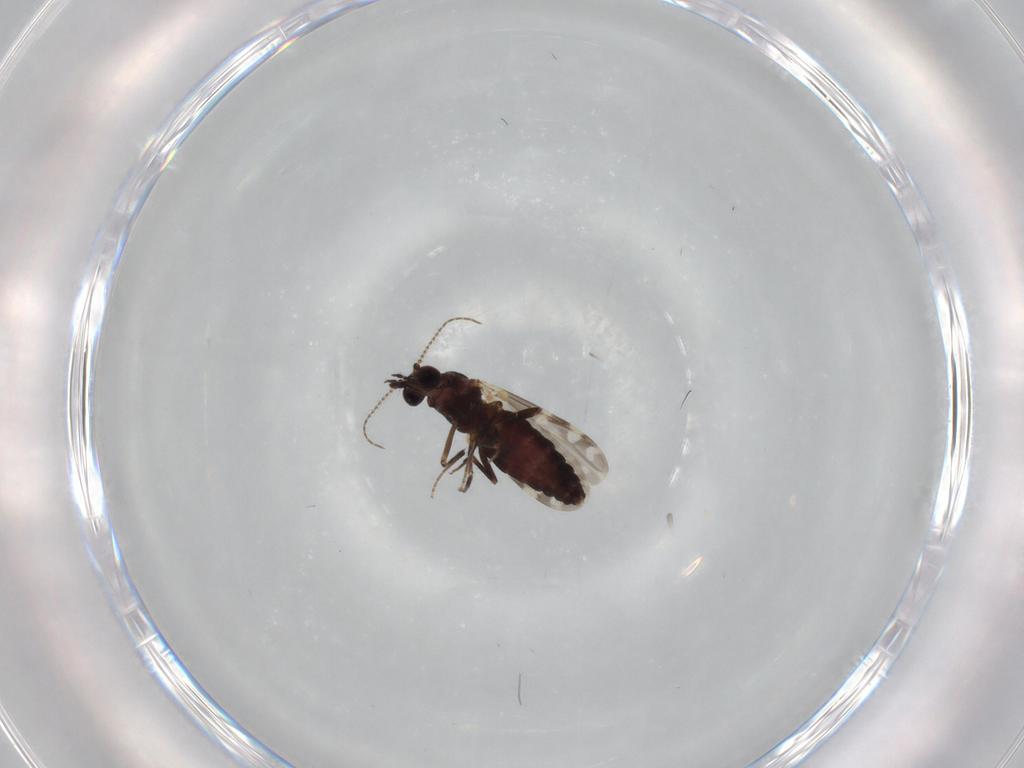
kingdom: Animalia
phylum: Arthropoda
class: Insecta
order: Diptera
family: Ceratopogonidae
